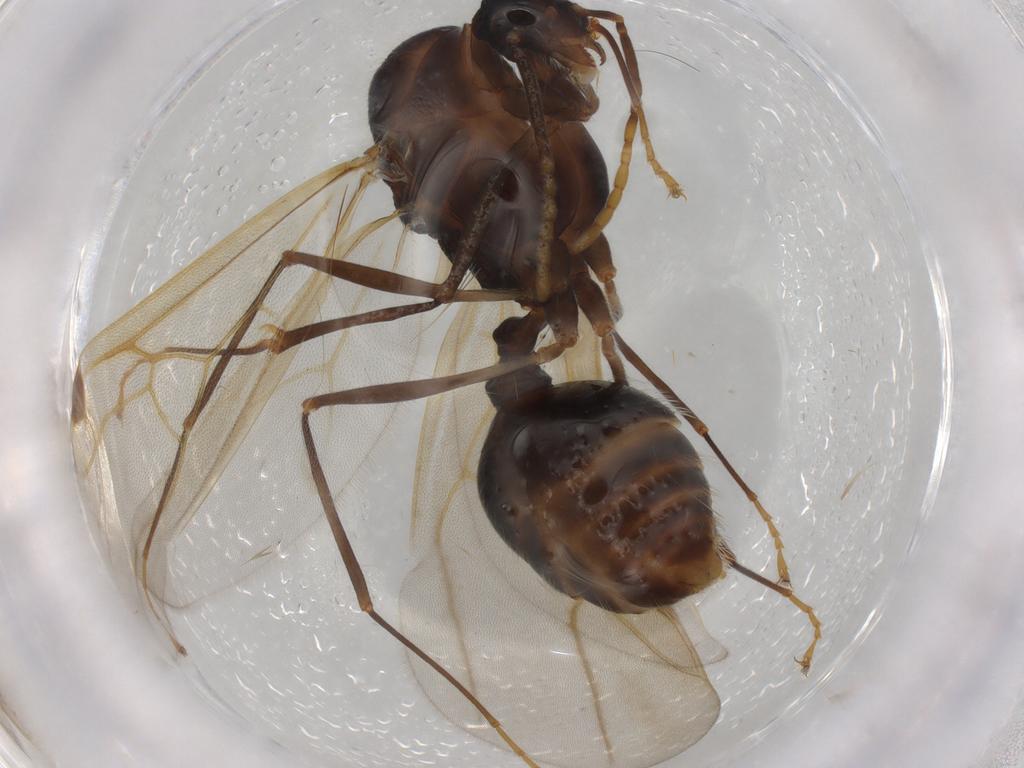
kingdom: Animalia
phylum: Arthropoda
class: Insecta
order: Hymenoptera
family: Formicidae
